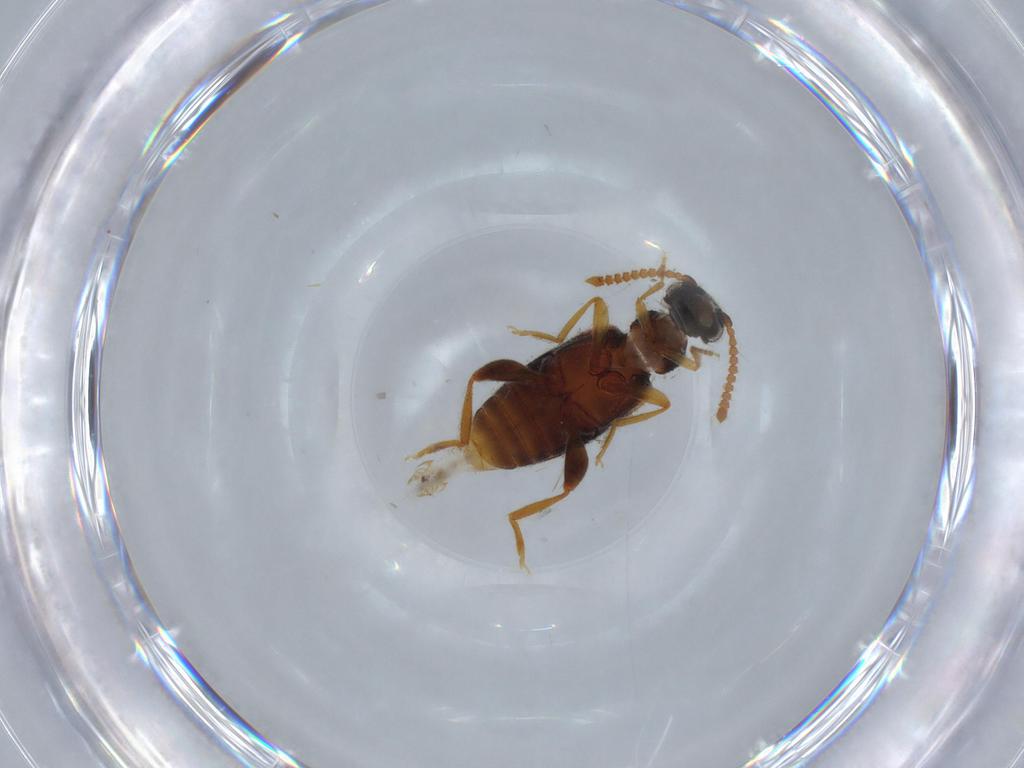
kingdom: Animalia
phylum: Arthropoda
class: Insecta
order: Coleoptera
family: Aderidae
